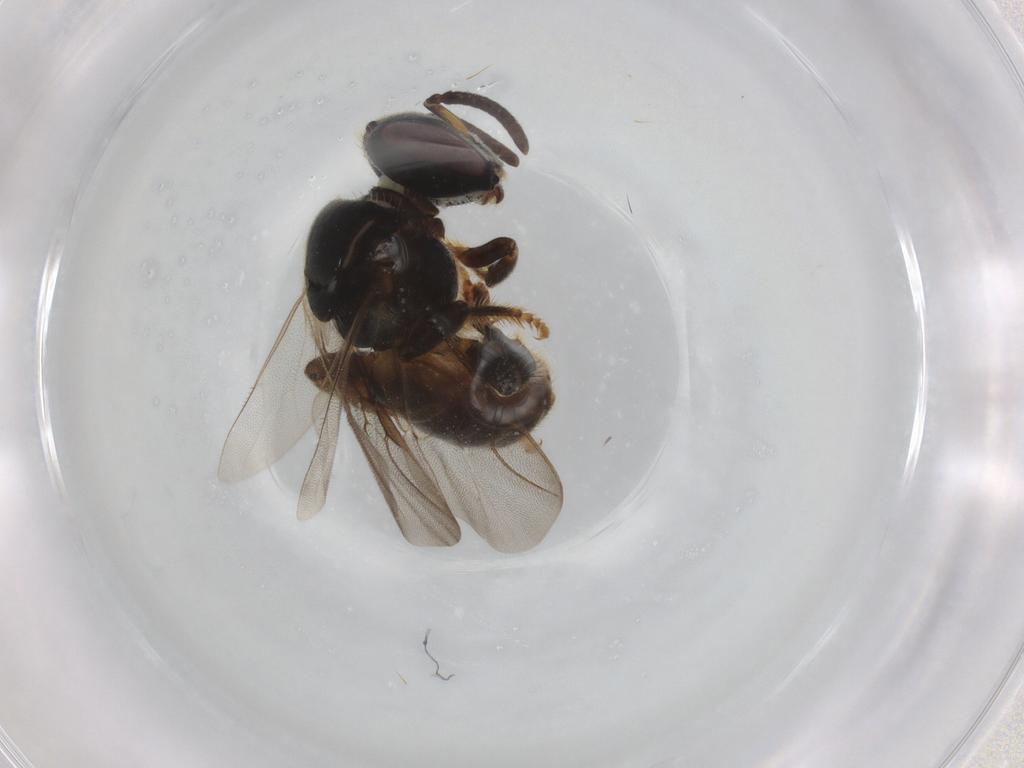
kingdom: Animalia
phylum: Arthropoda
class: Insecta
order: Hymenoptera
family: Apidae
